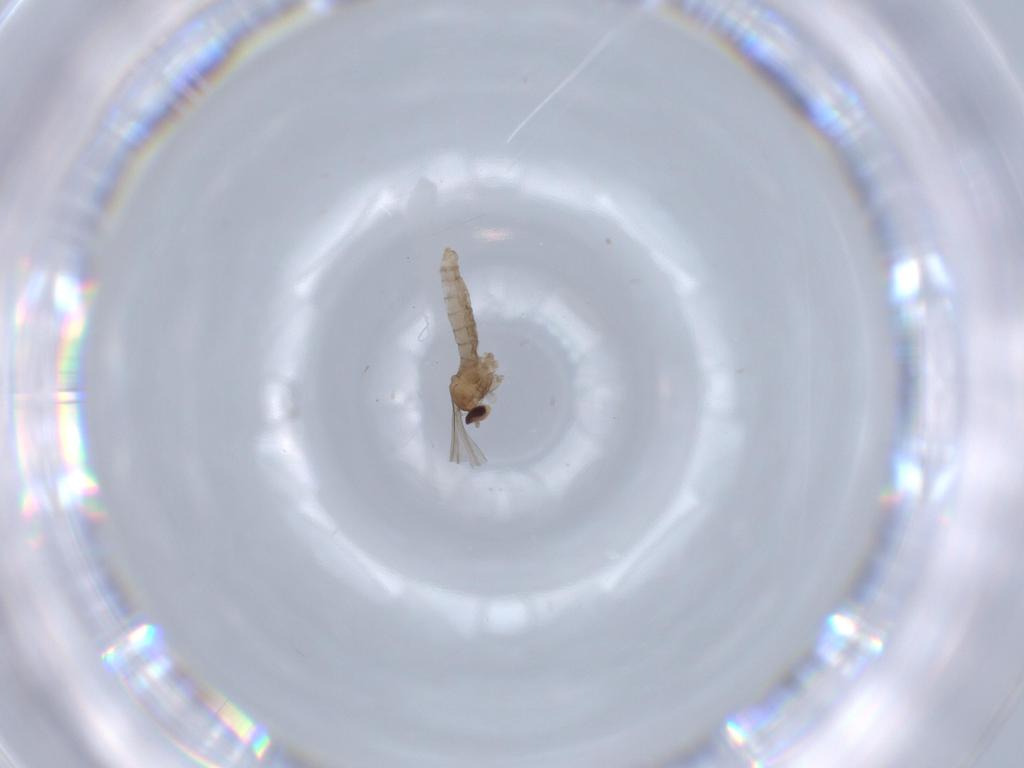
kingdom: Animalia
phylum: Arthropoda
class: Insecta
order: Diptera
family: Cecidomyiidae
